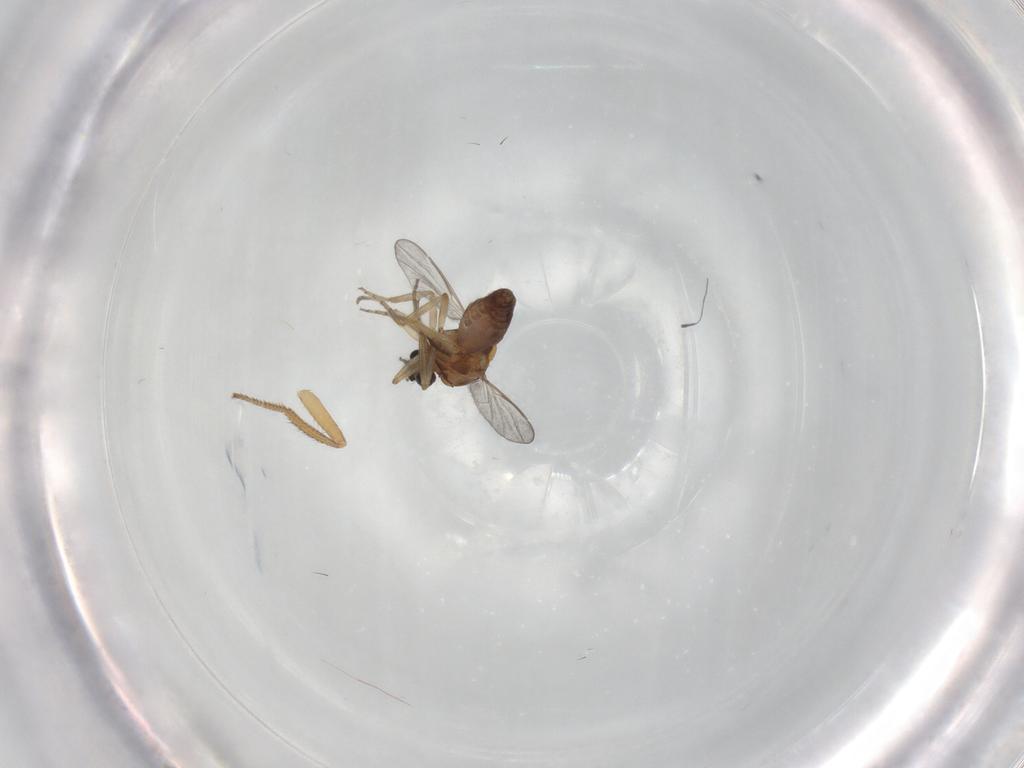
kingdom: Animalia
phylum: Arthropoda
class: Insecta
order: Diptera
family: Ceratopogonidae
